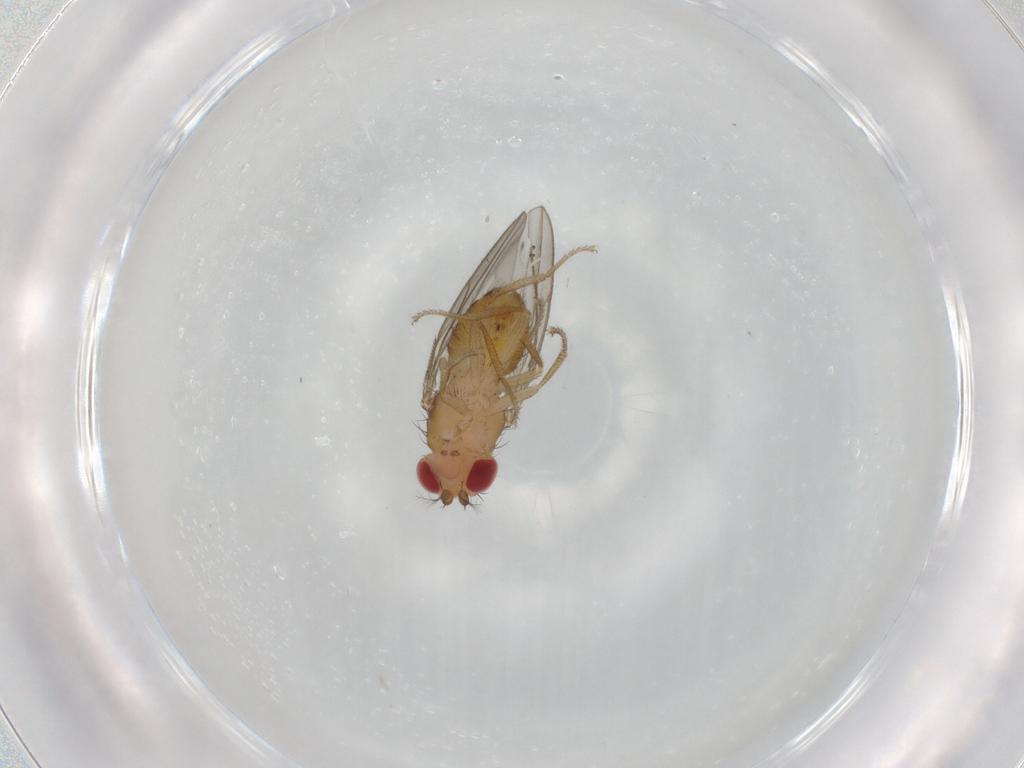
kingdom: Animalia
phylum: Arthropoda
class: Insecta
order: Diptera
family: Drosophilidae
